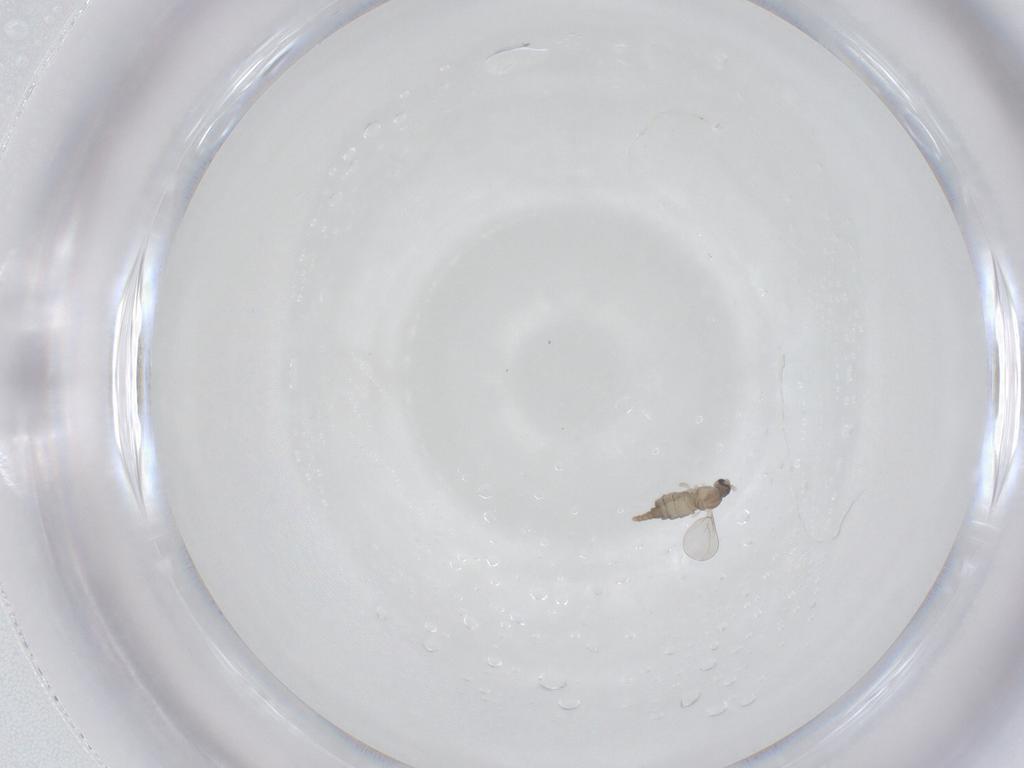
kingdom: Animalia
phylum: Arthropoda
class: Insecta
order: Diptera
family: Cecidomyiidae
